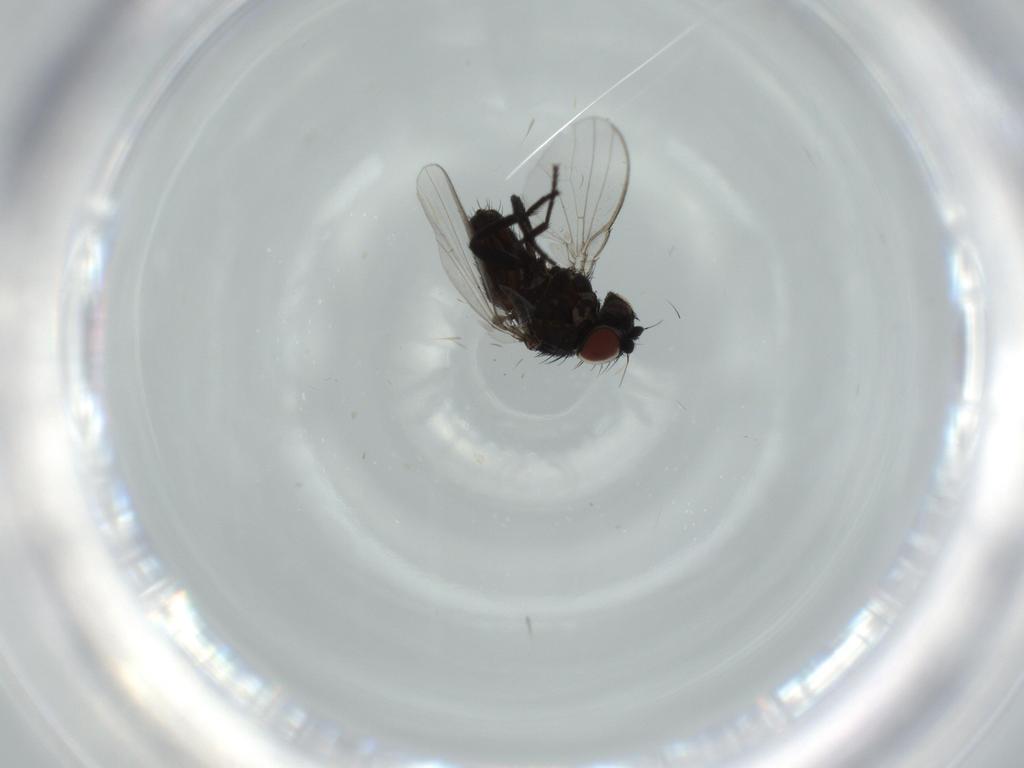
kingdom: Animalia
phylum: Arthropoda
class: Insecta
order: Diptera
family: Milichiidae
